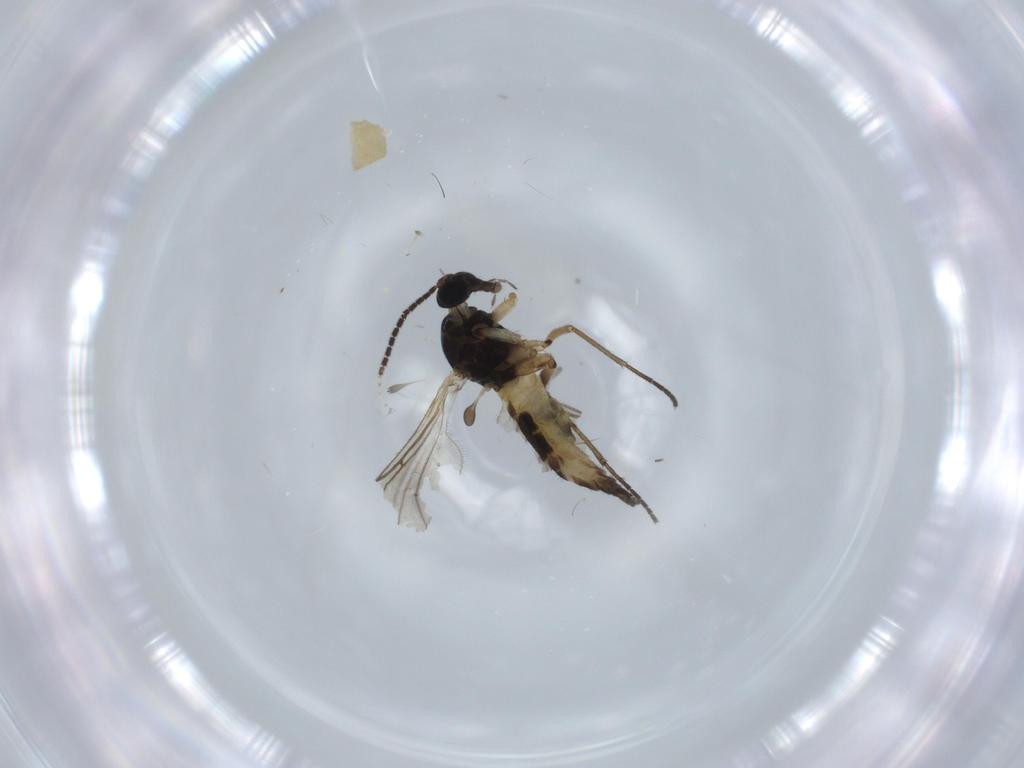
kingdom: Animalia
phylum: Arthropoda
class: Insecta
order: Diptera
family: Sciaridae
